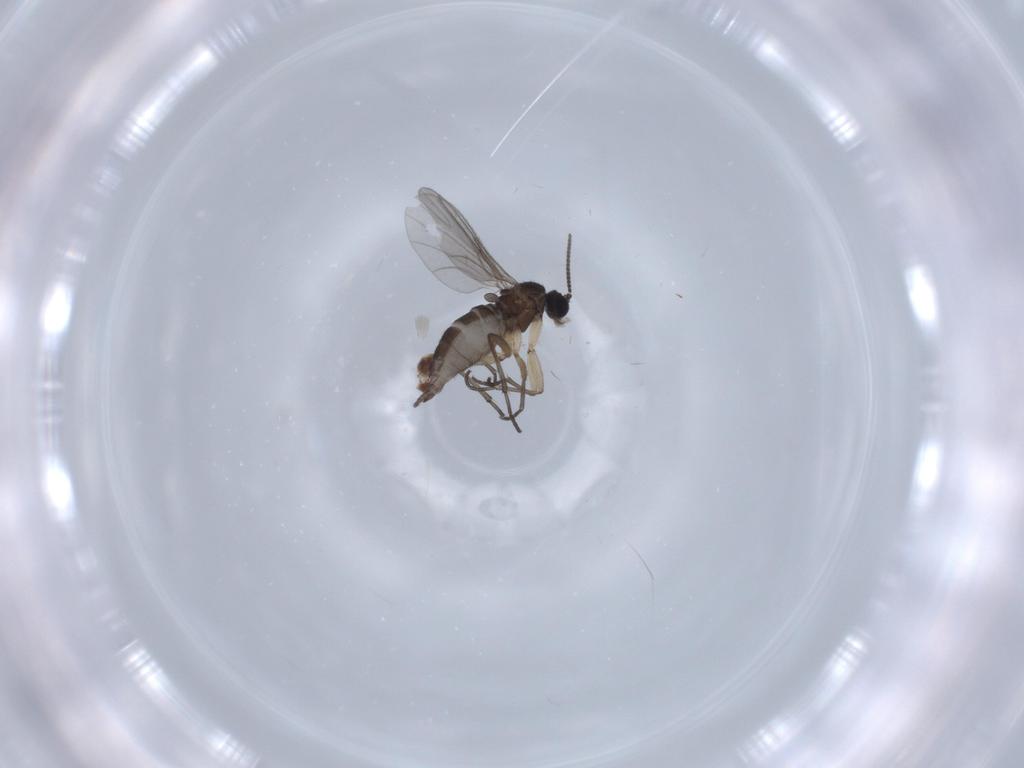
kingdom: Animalia
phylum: Arthropoda
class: Insecta
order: Diptera
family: Sciaridae
